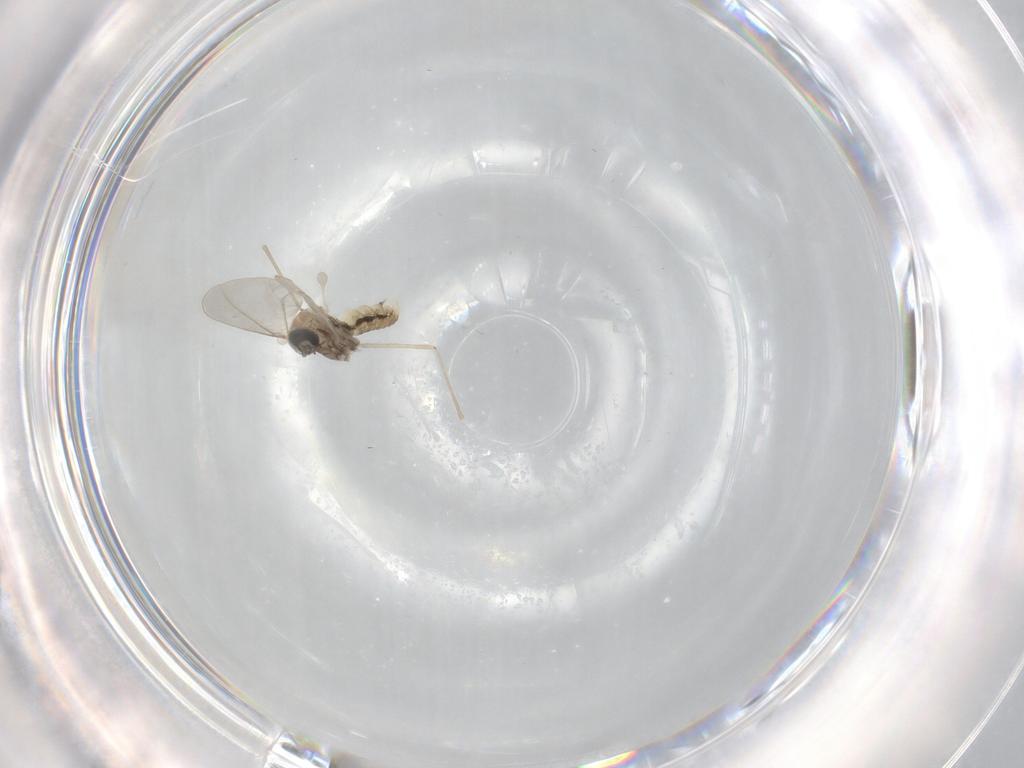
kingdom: Animalia
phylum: Arthropoda
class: Insecta
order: Diptera
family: Cecidomyiidae
